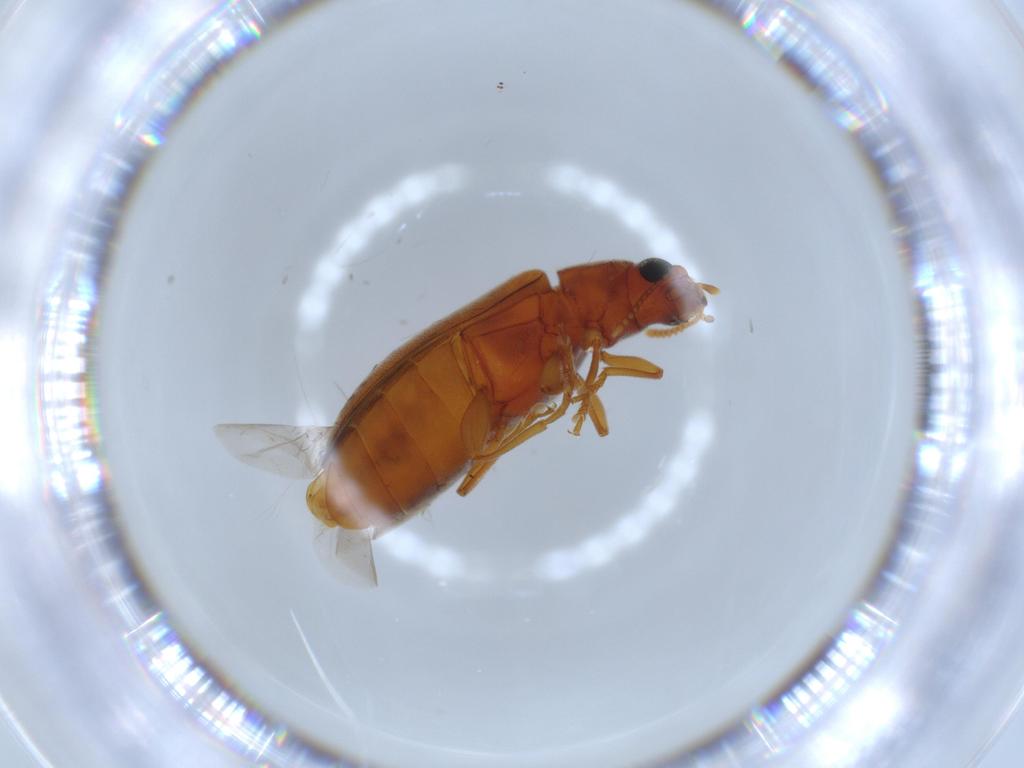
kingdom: Animalia
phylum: Arthropoda
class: Insecta
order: Coleoptera
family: Mycteridae
